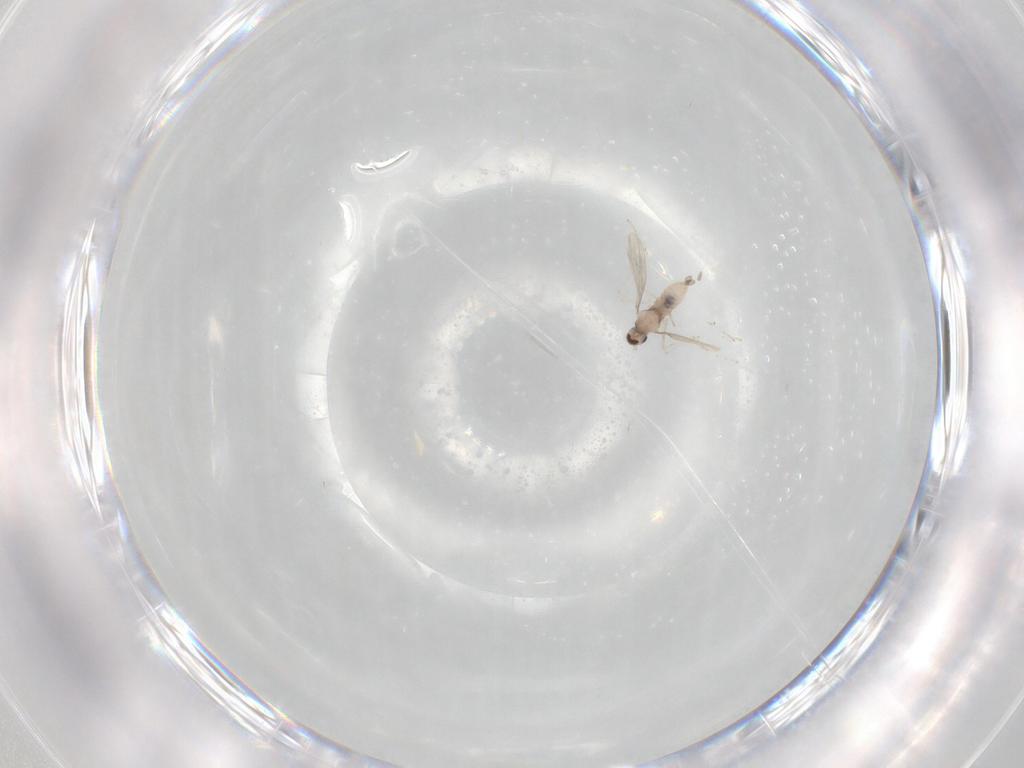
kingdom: Animalia
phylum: Arthropoda
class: Insecta
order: Diptera
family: Cecidomyiidae
